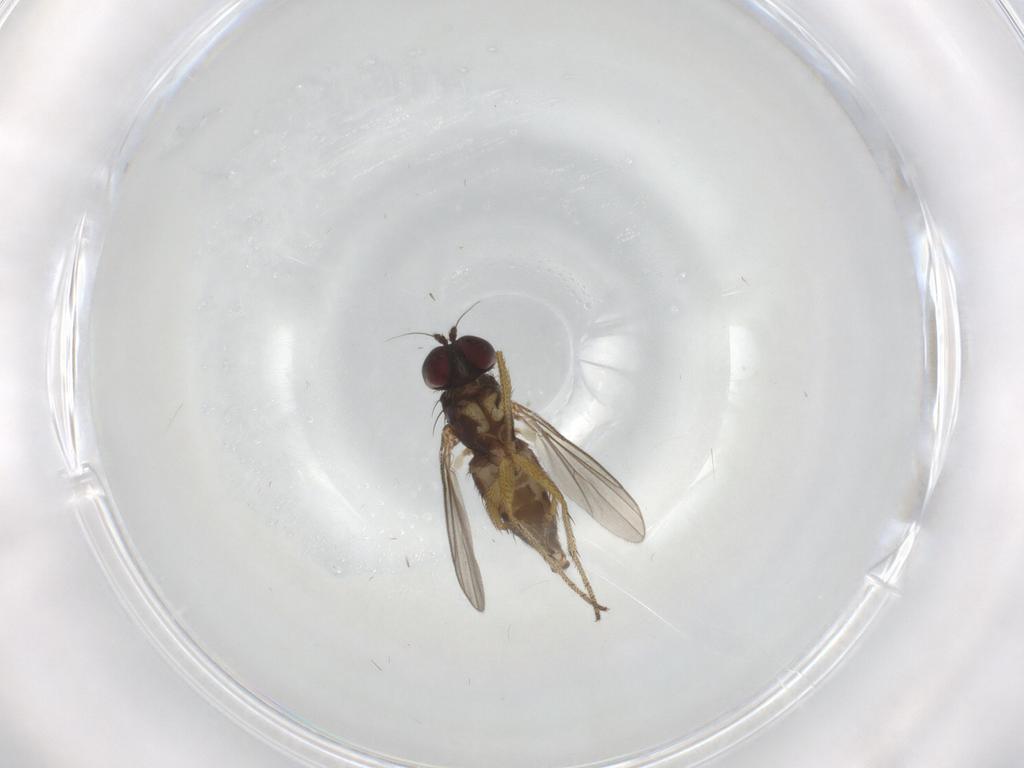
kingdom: Animalia
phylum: Arthropoda
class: Insecta
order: Diptera
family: Dolichopodidae
